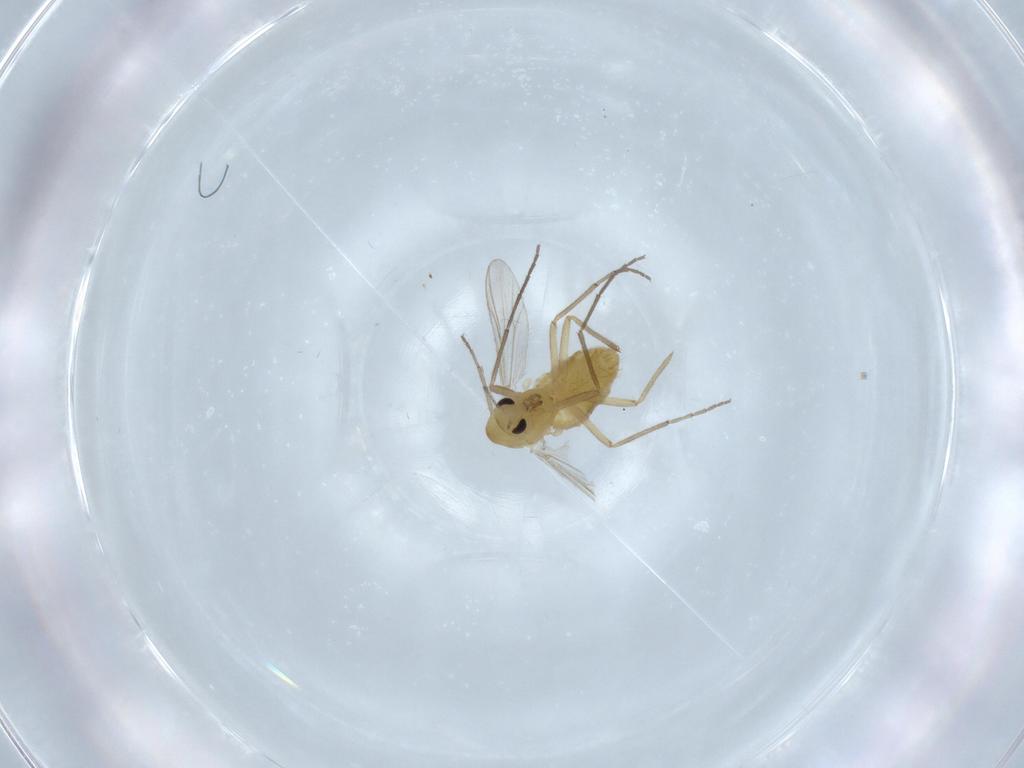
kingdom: Animalia
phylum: Arthropoda
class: Insecta
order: Diptera
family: Chironomidae
